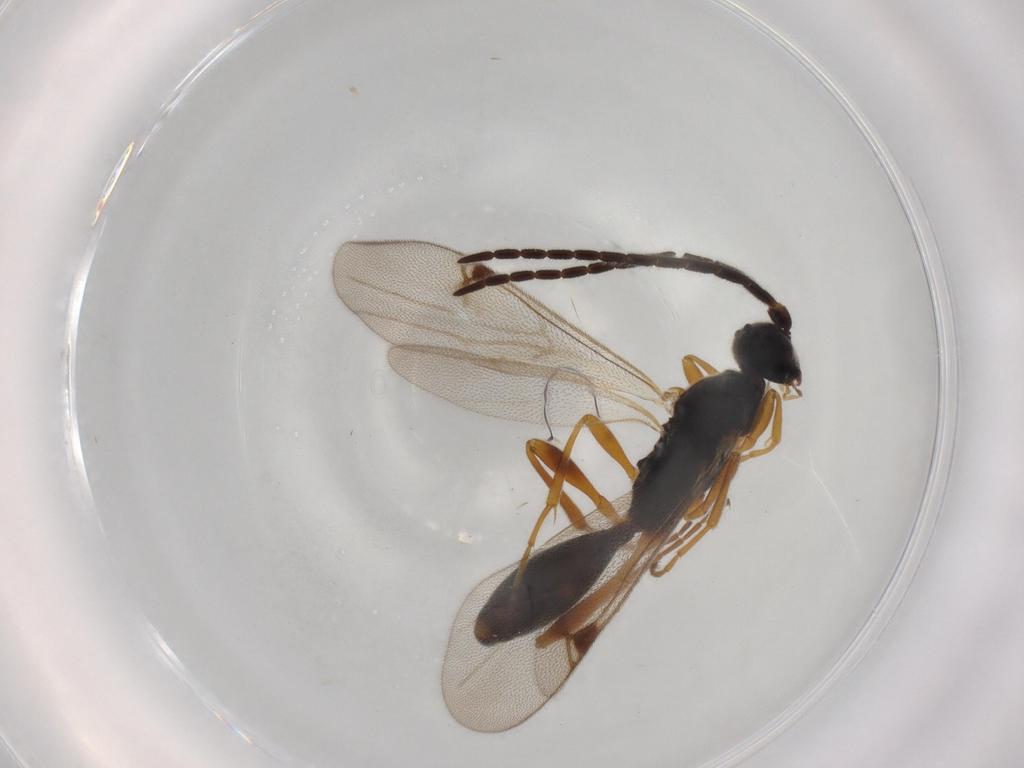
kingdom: Animalia
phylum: Arthropoda
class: Insecta
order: Hymenoptera
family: Proctotrupidae
